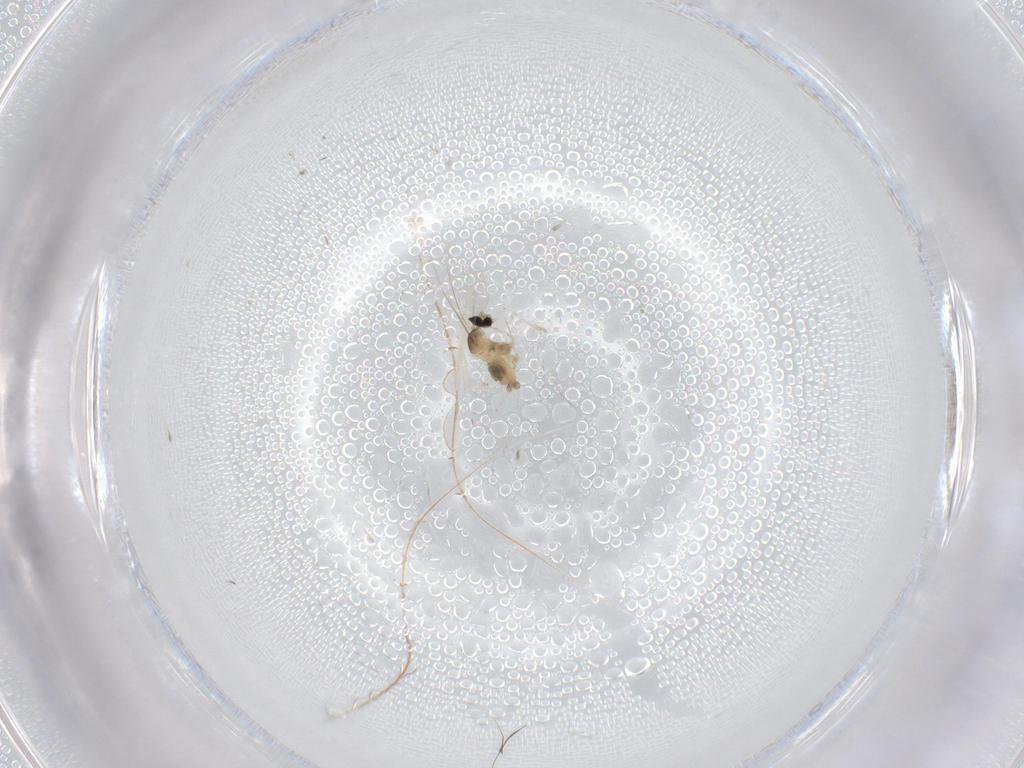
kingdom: Animalia
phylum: Arthropoda
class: Insecta
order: Diptera
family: Cecidomyiidae
